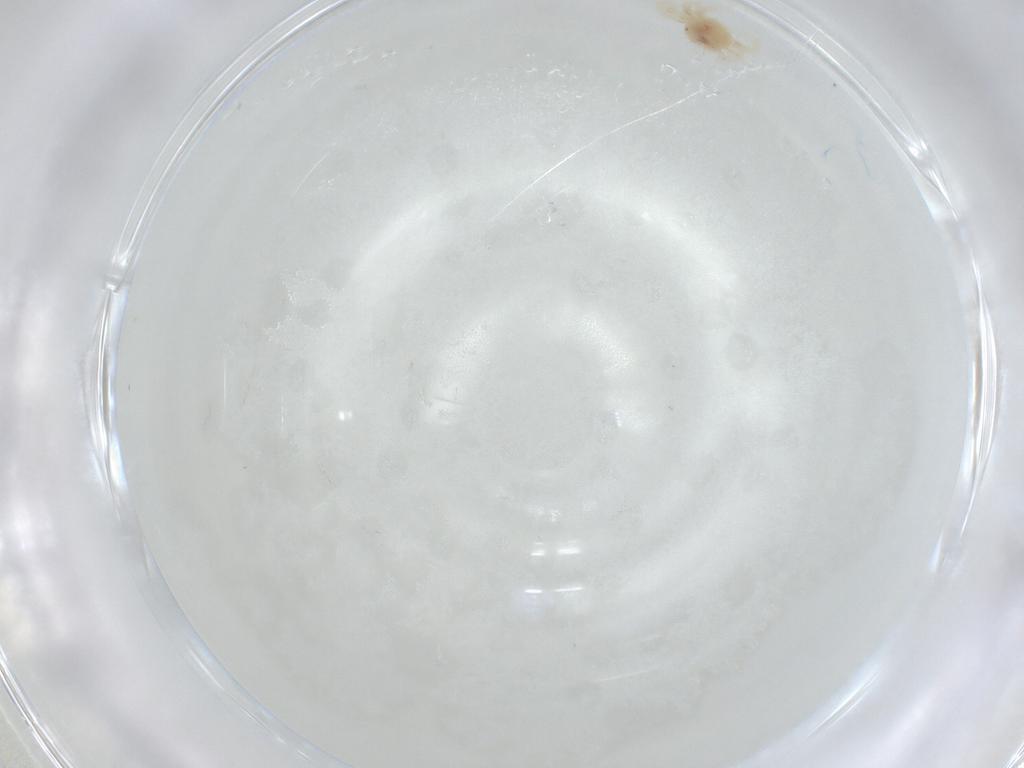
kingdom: Animalia
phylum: Arthropoda
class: Arachnida
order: Trombidiformes
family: Anystidae
